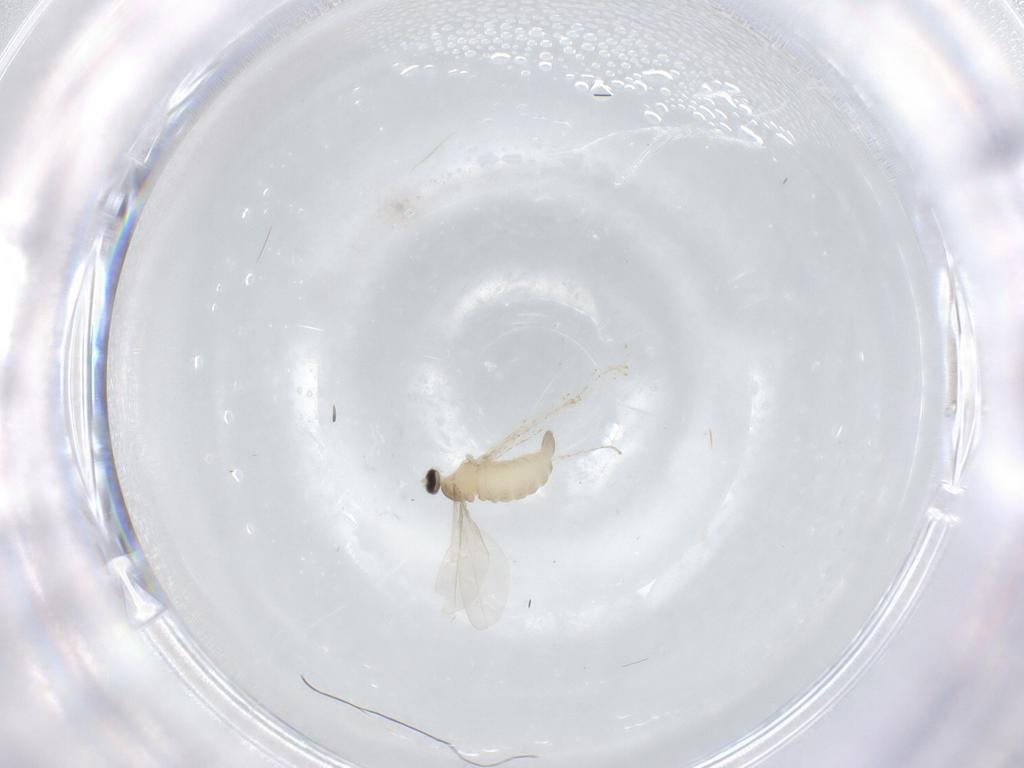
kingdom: Animalia
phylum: Arthropoda
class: Insecta
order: Diptera
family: Cecidomyiidae
